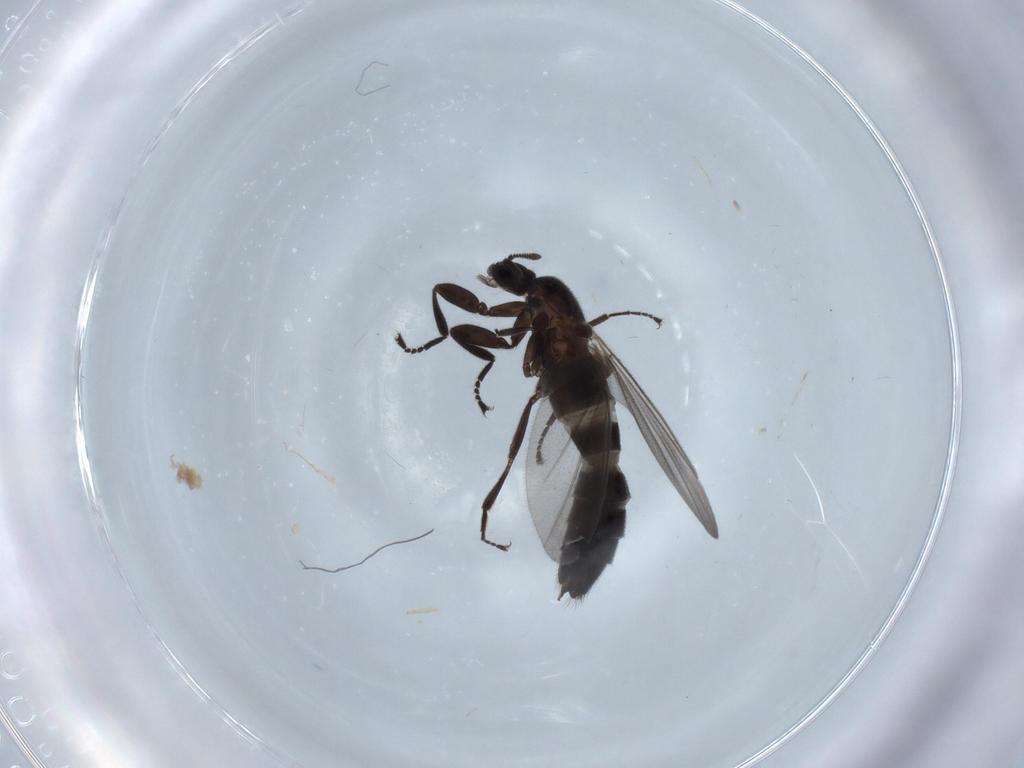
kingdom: Animalia
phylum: Arthropoda
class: Insecta
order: Diptera
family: Scatopsidae
